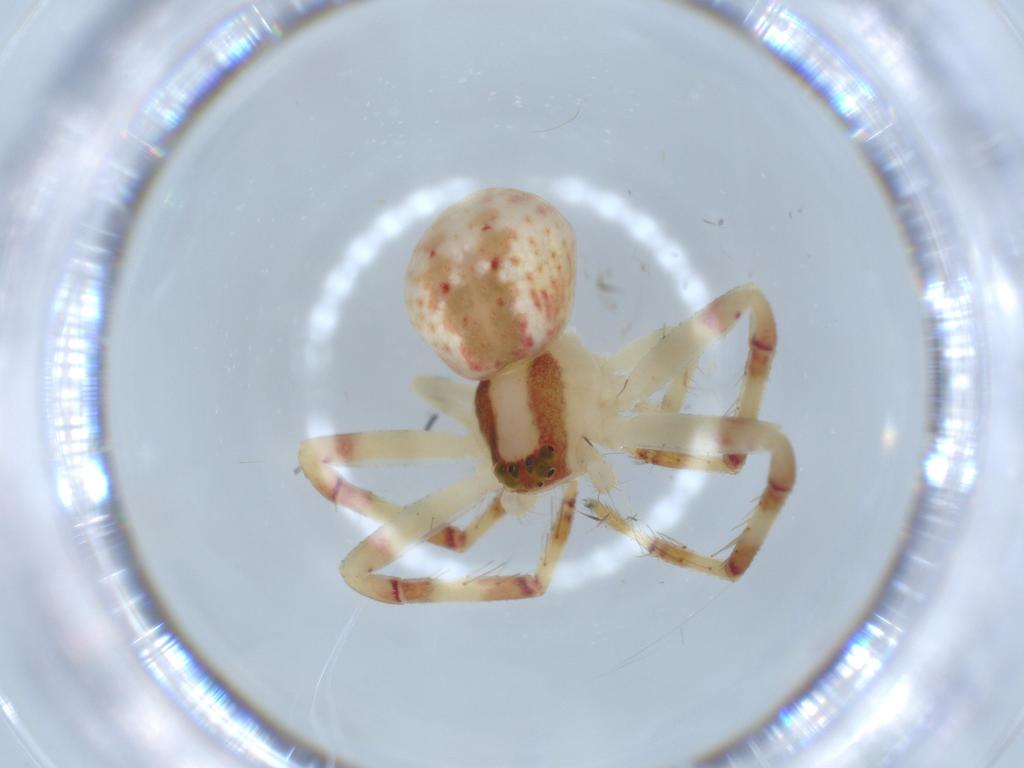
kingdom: Animalia
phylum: Arthropoda
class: Arachnida
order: Araneae
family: Thomisidae
